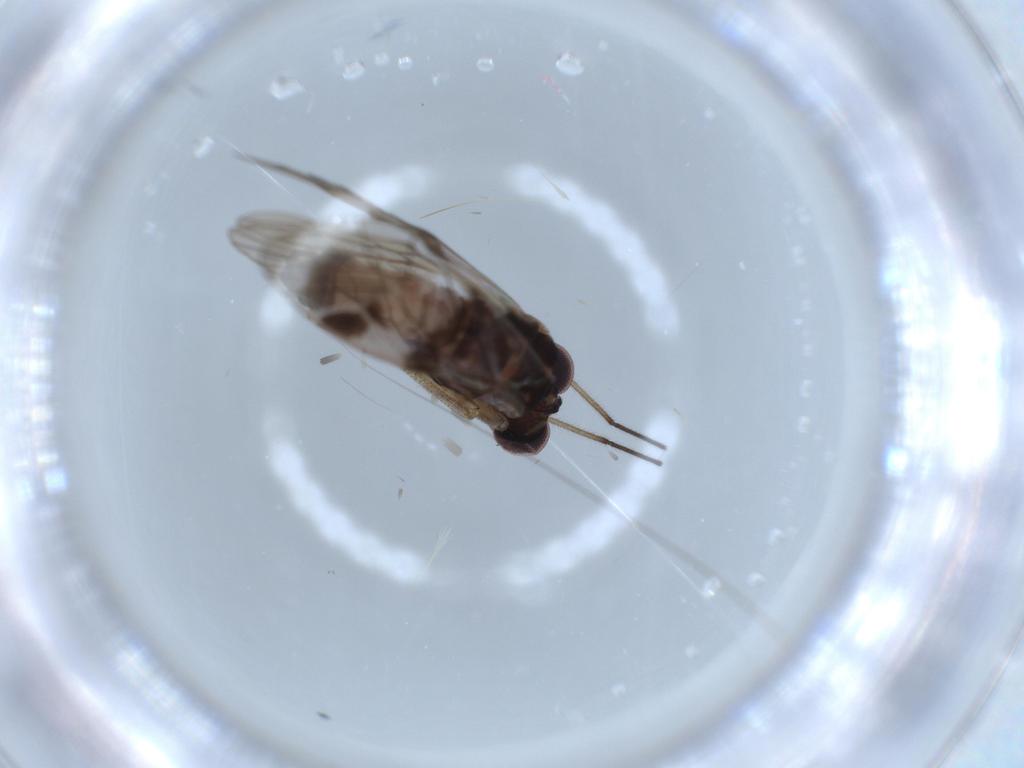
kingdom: Animalia
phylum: Arthropoda
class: Insecta
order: Diptera
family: Cecidomyiidae
